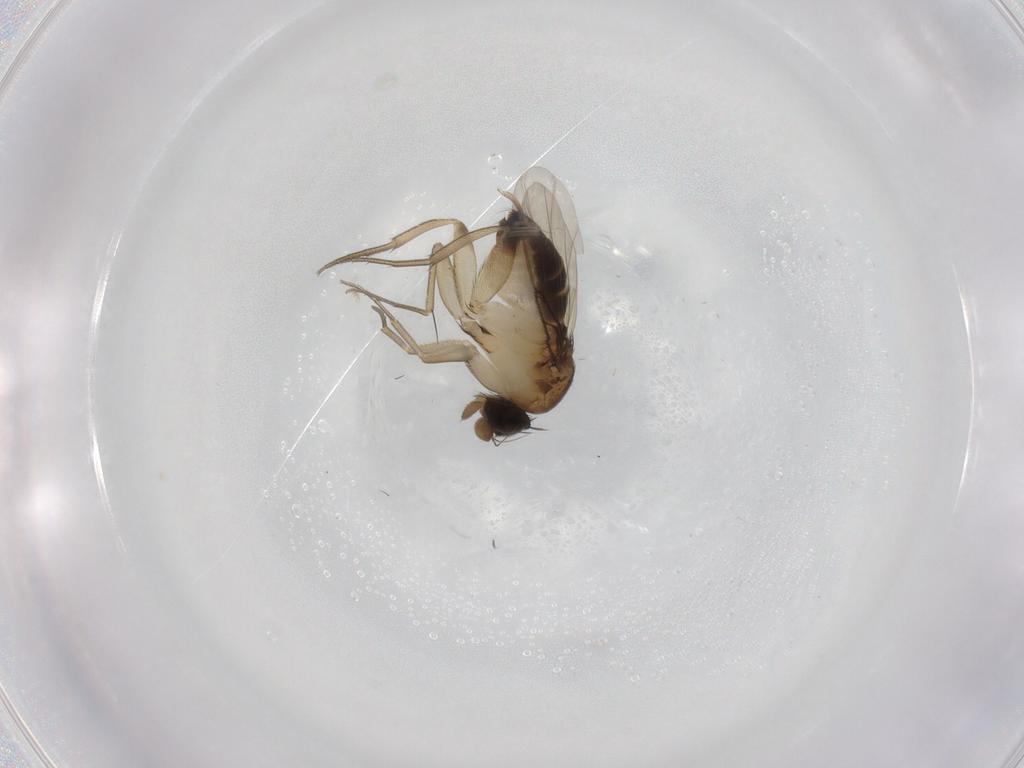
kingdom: Animalia
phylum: Arthropoda
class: Insecta
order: Diptera
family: Phoridae
